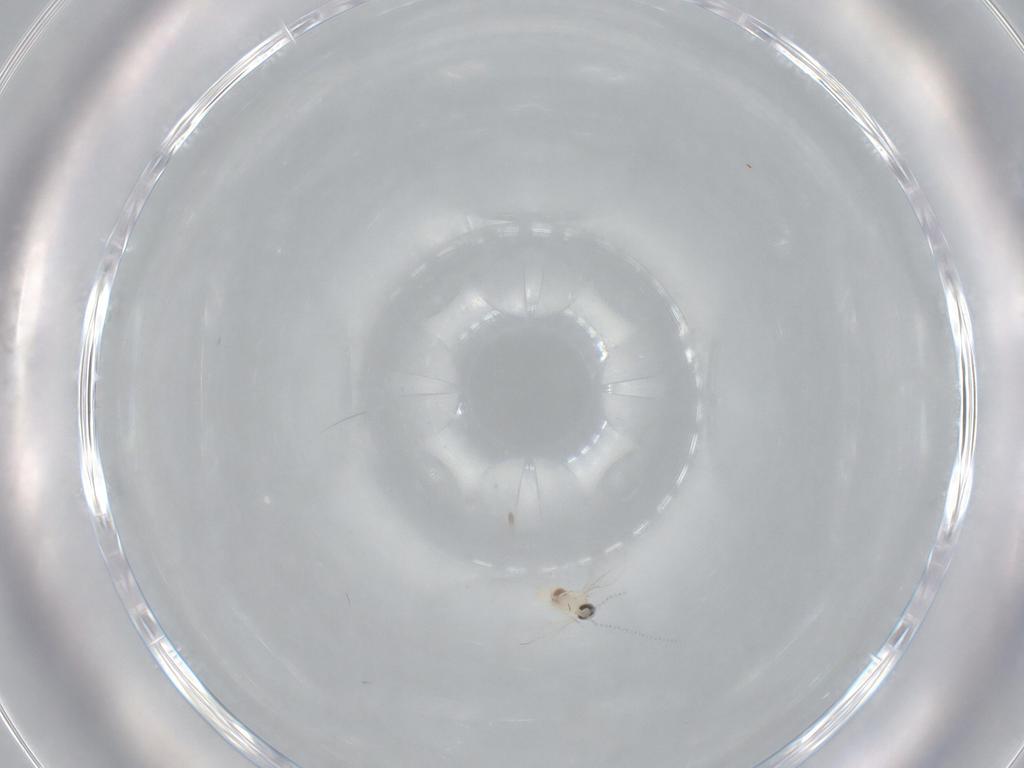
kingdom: Animalia
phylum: Arthropoda
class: Insecta
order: Diptera
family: Cecidomyiidae
